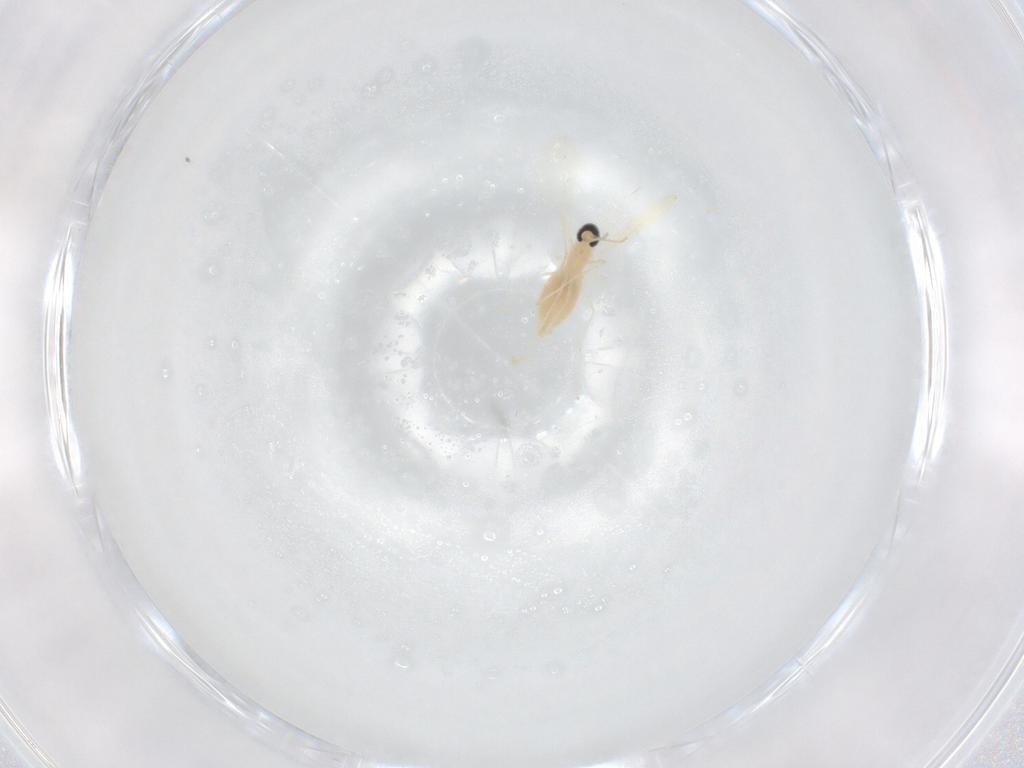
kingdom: Animalia
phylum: Arthropoda
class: Insecta
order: Diptera
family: Cecidomyiidae
